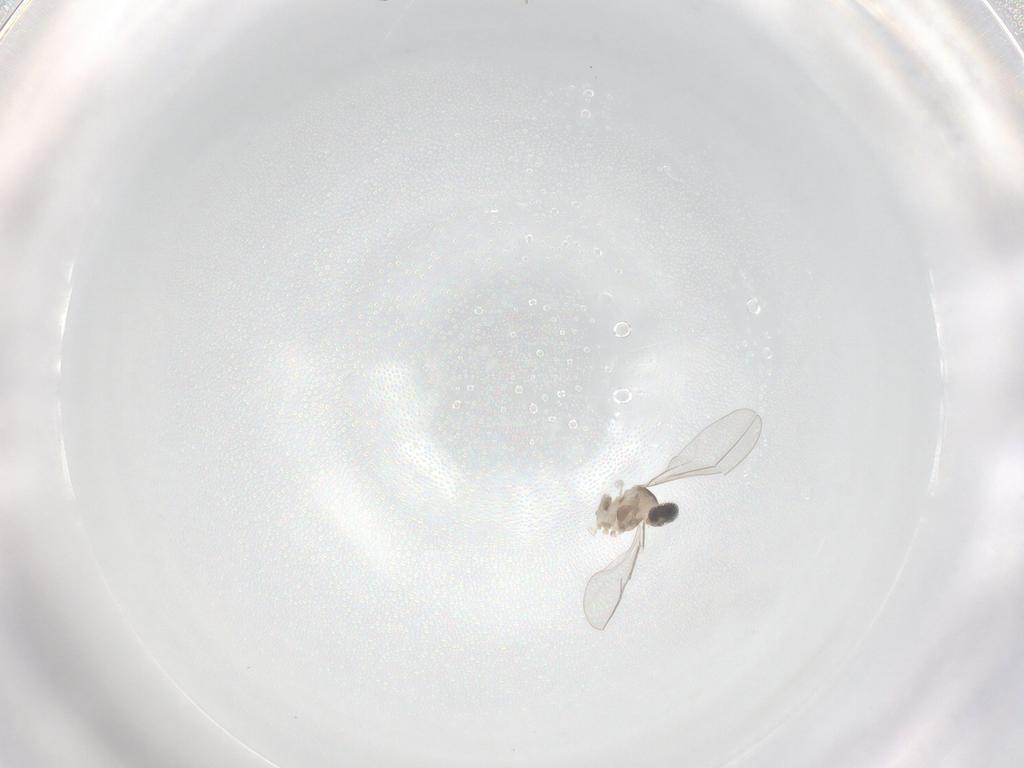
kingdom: Animalia
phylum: Arthropoda
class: Insecta
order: Diptera
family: Cecidomyiidae
